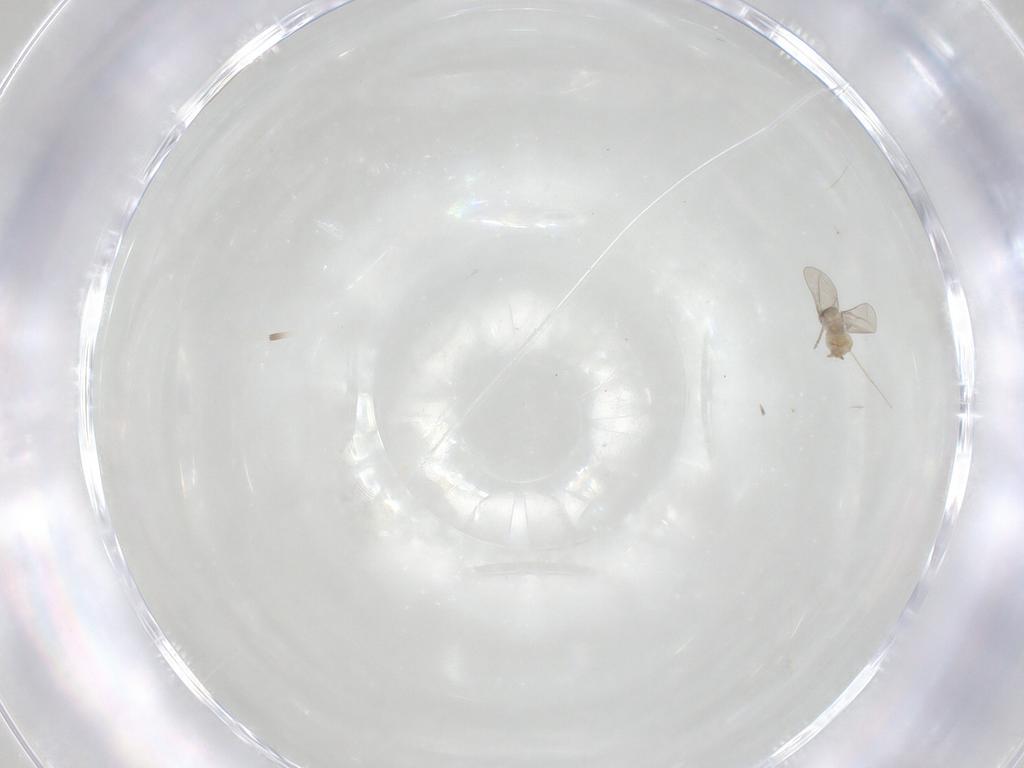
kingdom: Animalia
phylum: Arthropoda
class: Insecta
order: Diptera
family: Cecidomyiidae
